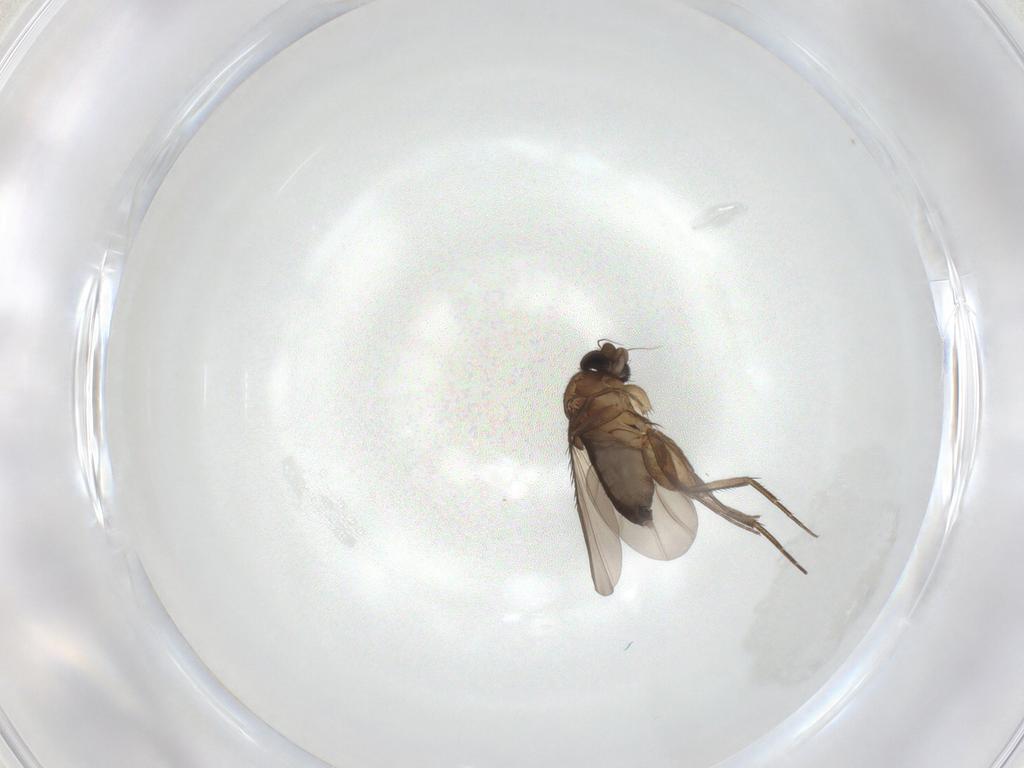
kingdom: Animalia
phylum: Arthropoda
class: Insecta
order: Diptera
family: Phoridae
